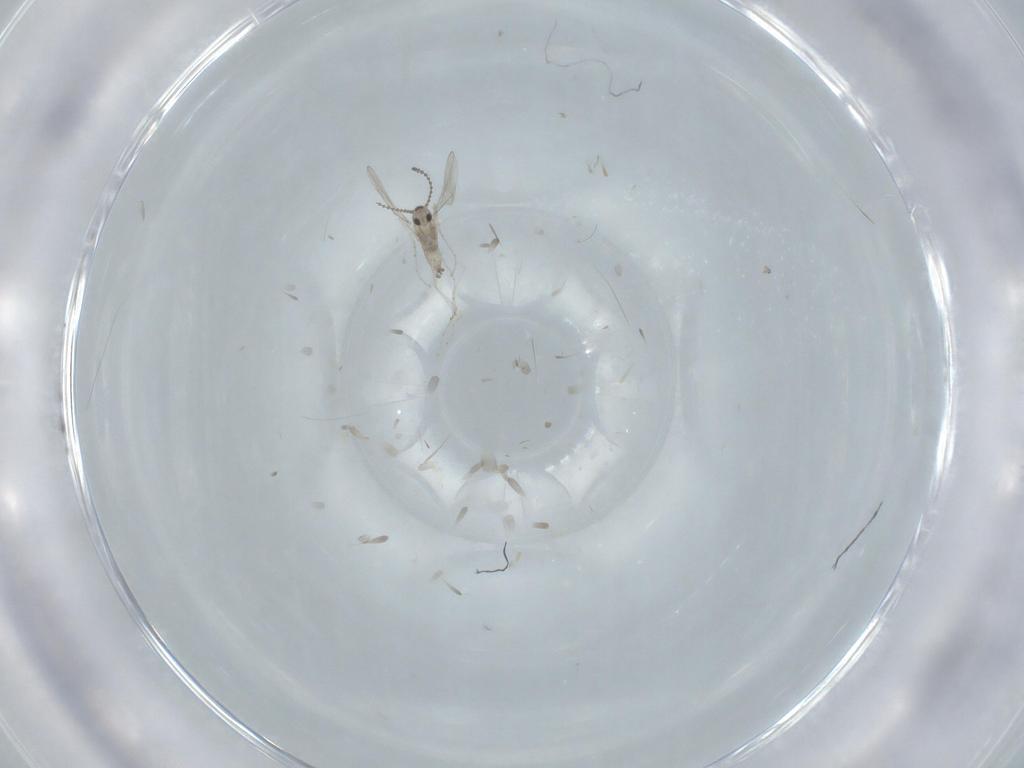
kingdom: Animalia
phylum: Arthropoda
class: Insecta
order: Diptera
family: Cecidomyiidae
